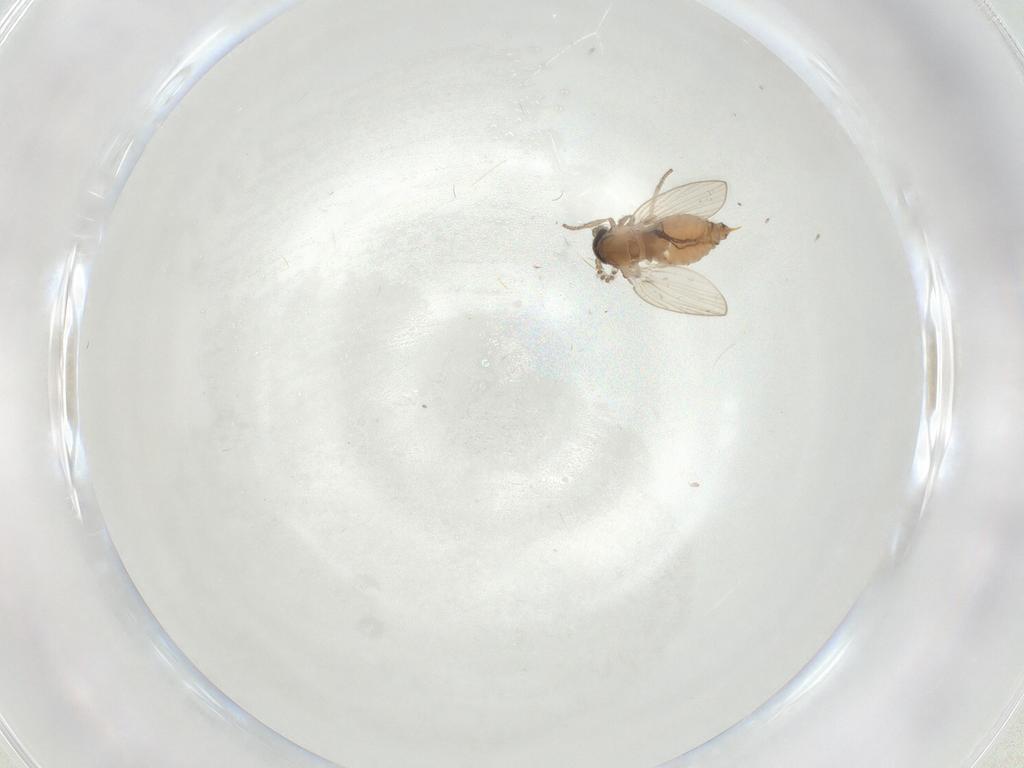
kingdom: Animalia
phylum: Arthropoda
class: Insecta
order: Diptera
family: Psychodidae
